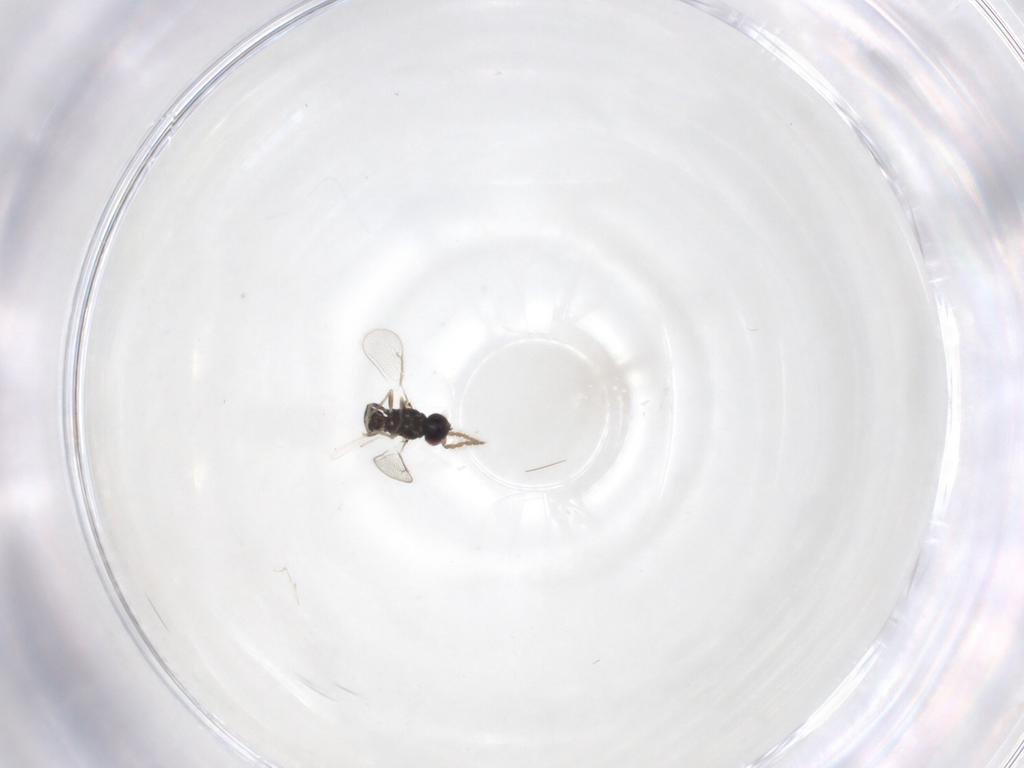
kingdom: Animalia
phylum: Arthropoda
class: Insecta
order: Hymenoptera
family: Eulophidae
